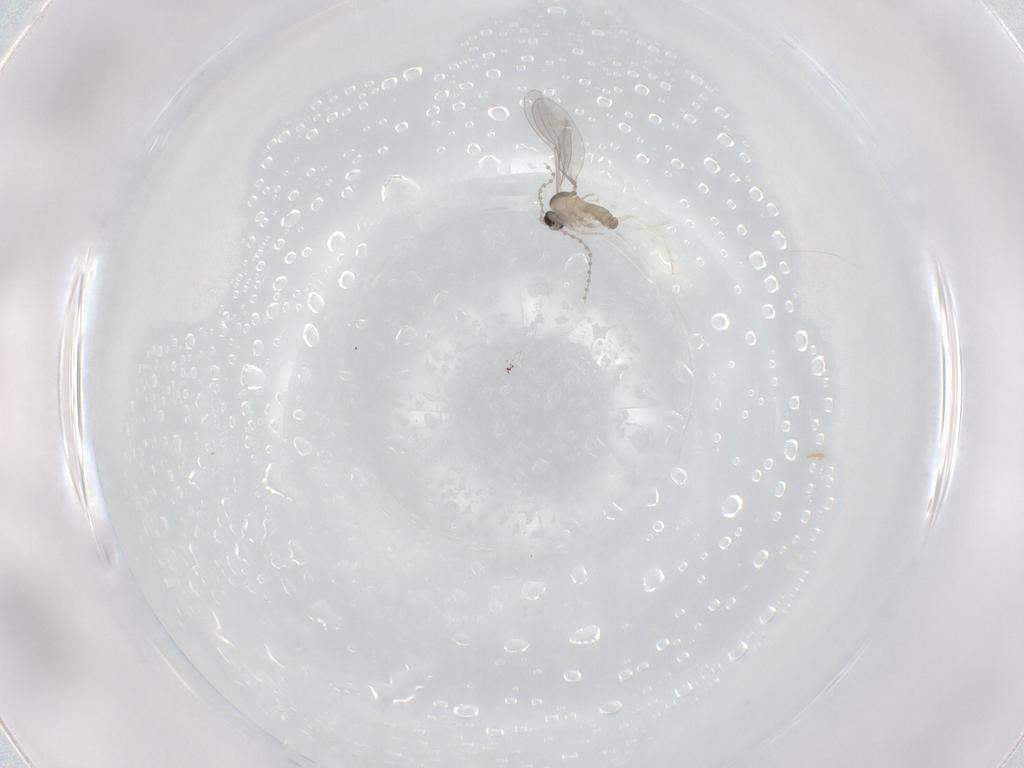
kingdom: Animalia
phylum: Arthropoda
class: Insecta
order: Diptera
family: Cecidomyiidae
